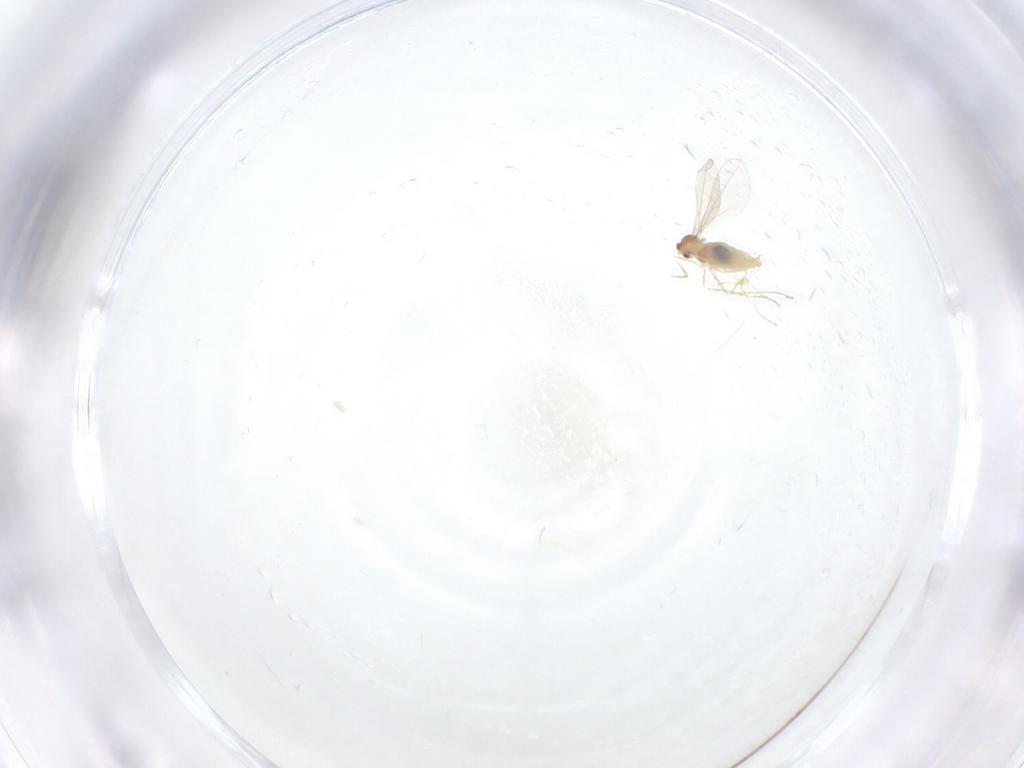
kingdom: Animalia
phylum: Arthropoda
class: Insecta
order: Diptera
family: Cecidomyiidae
